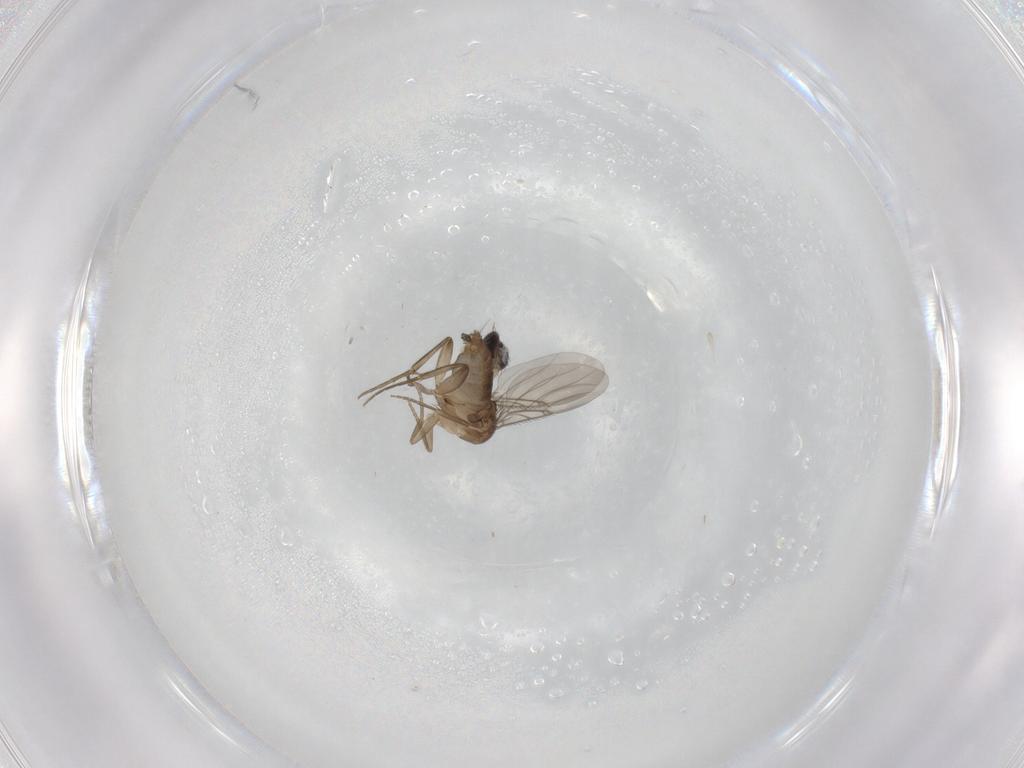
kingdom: Animalia
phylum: Arthropoda
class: Insecta
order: Diptera
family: Phoridae
